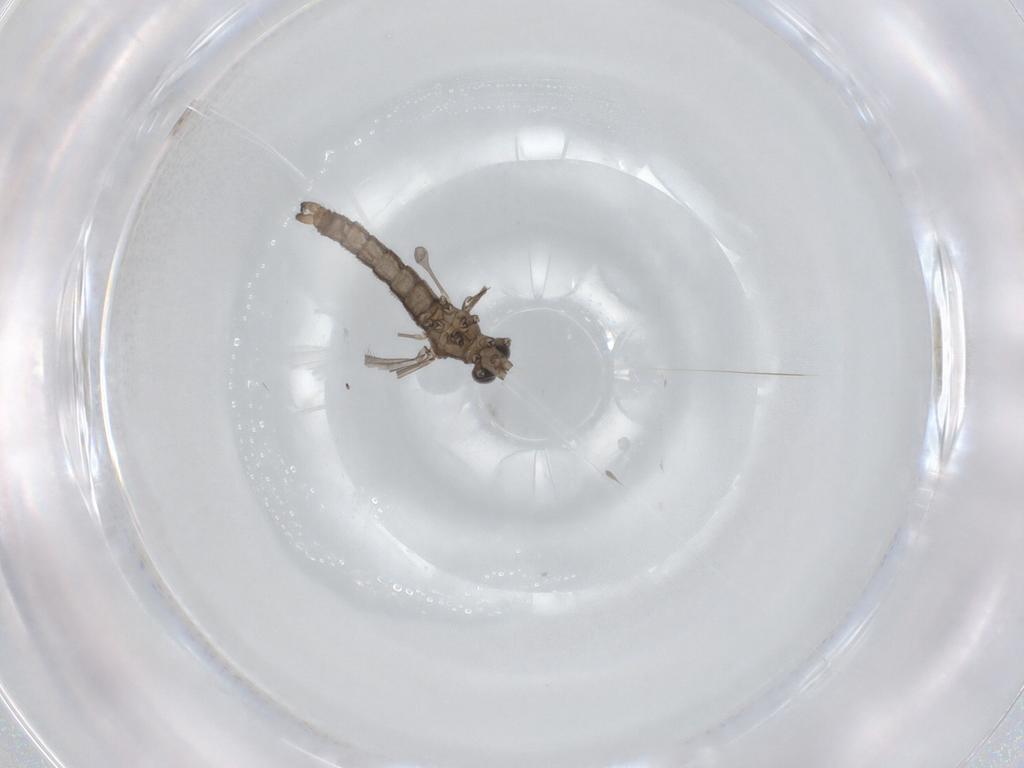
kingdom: Animalia
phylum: Arthropoda
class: Insecta
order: Diptera
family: Limoniidae
